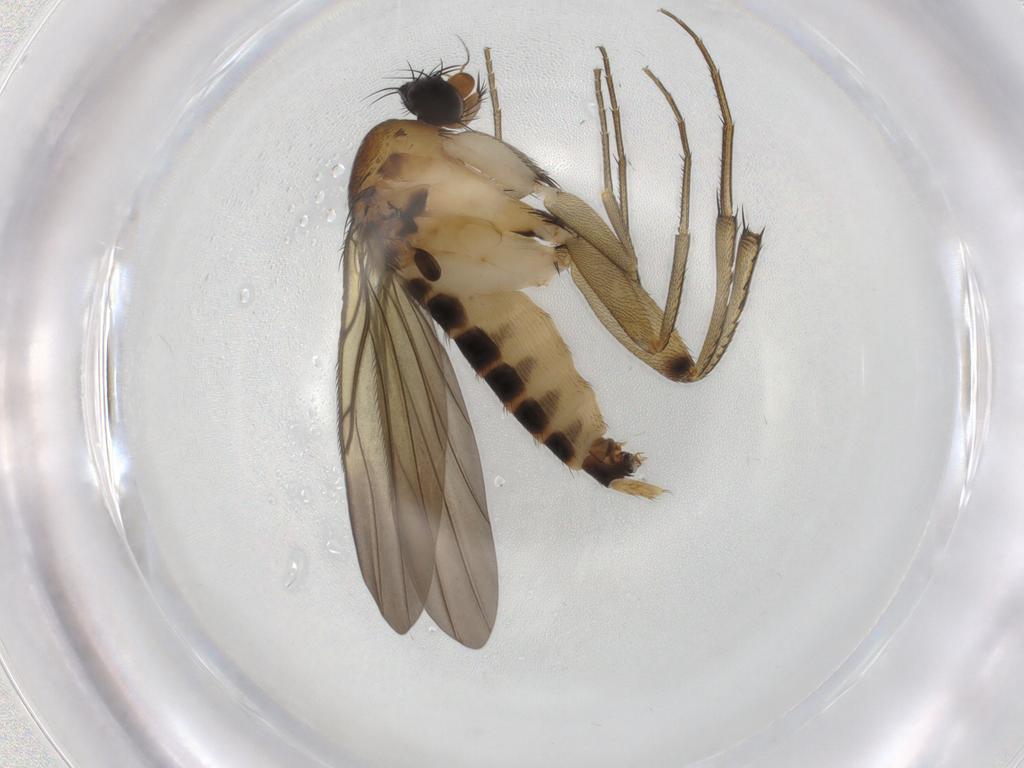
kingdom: Animalia
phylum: Arthropoda
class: Insecta
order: Diptera
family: Phoridae
